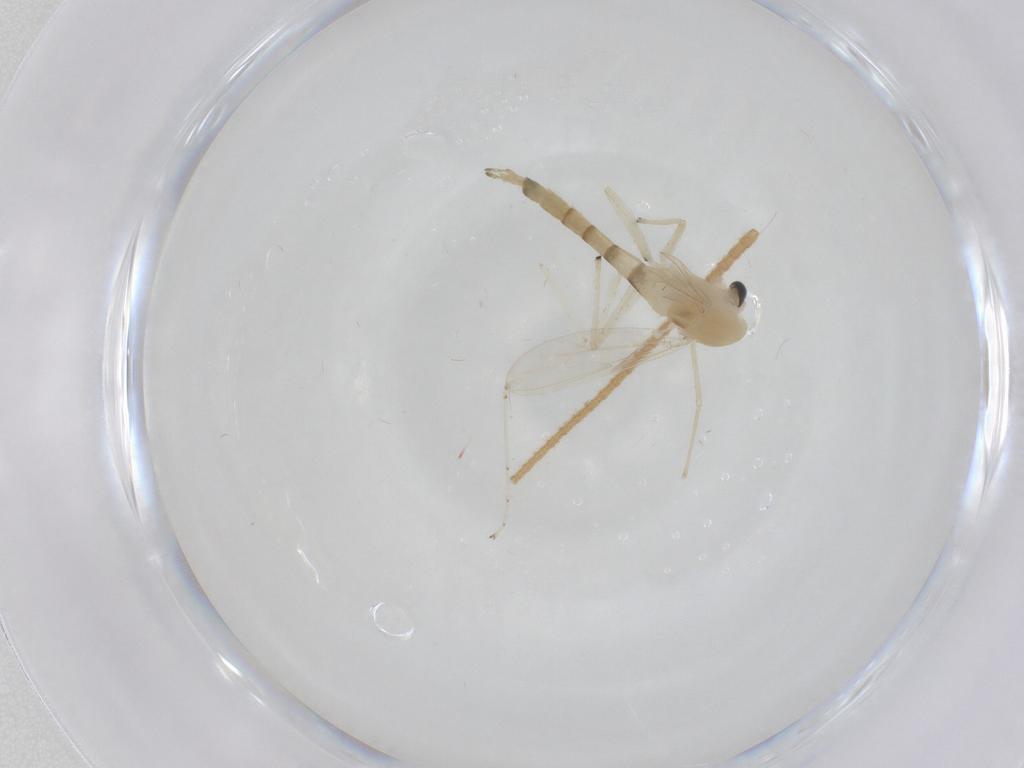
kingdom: Animalia
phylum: Arthropoda
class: Insecta
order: Diptera
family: Chironomidae
